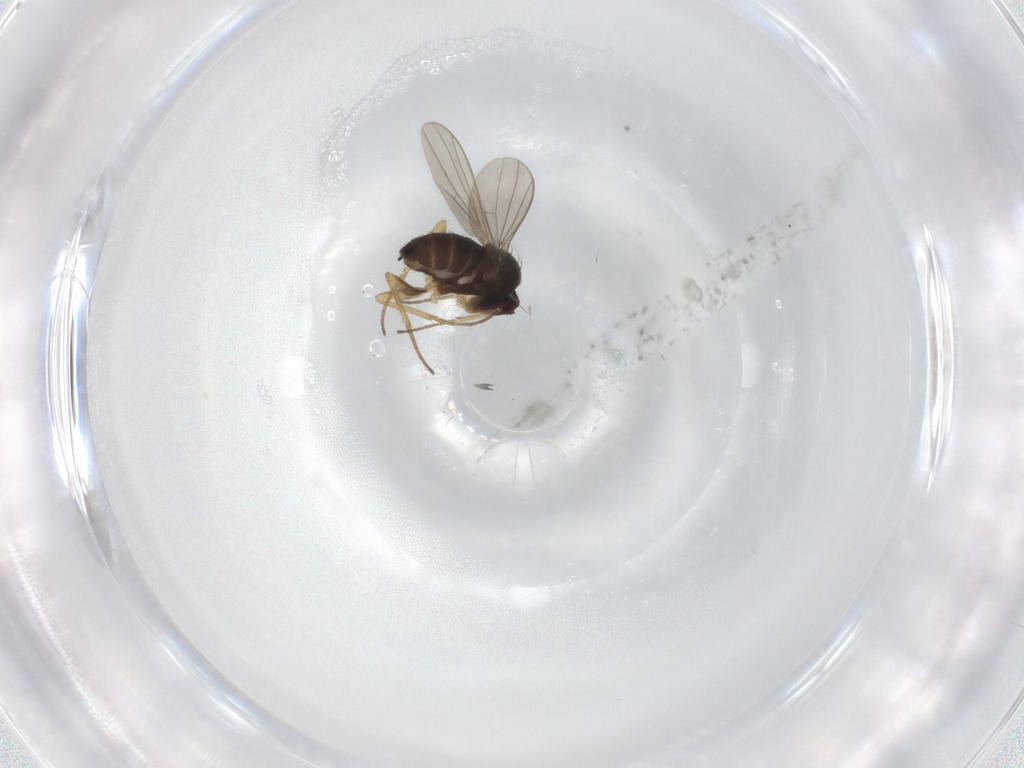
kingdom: Animalia
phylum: Arthropoda
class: Insecta
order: Diptera
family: Dolichopodidae
